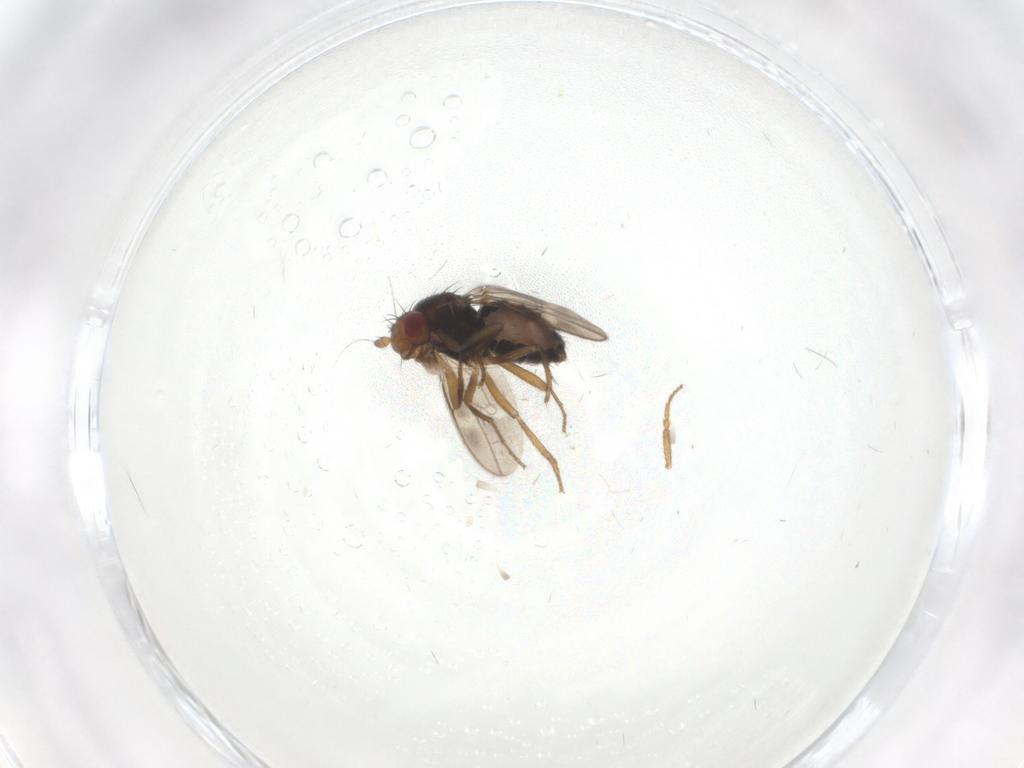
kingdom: Animalia
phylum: Arthropoda
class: Insecta
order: Diptera
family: Sphaeroceridae
